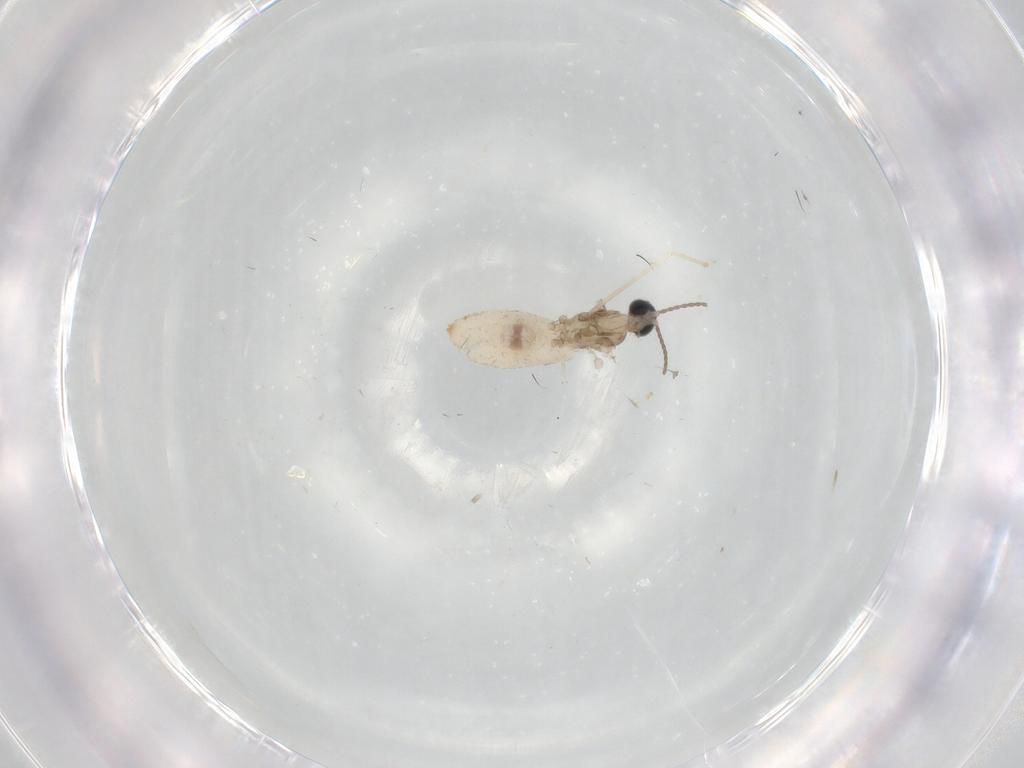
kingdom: Animalia
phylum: Arthropoda
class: Insecta
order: Diptera
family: Cecidomyiidae
